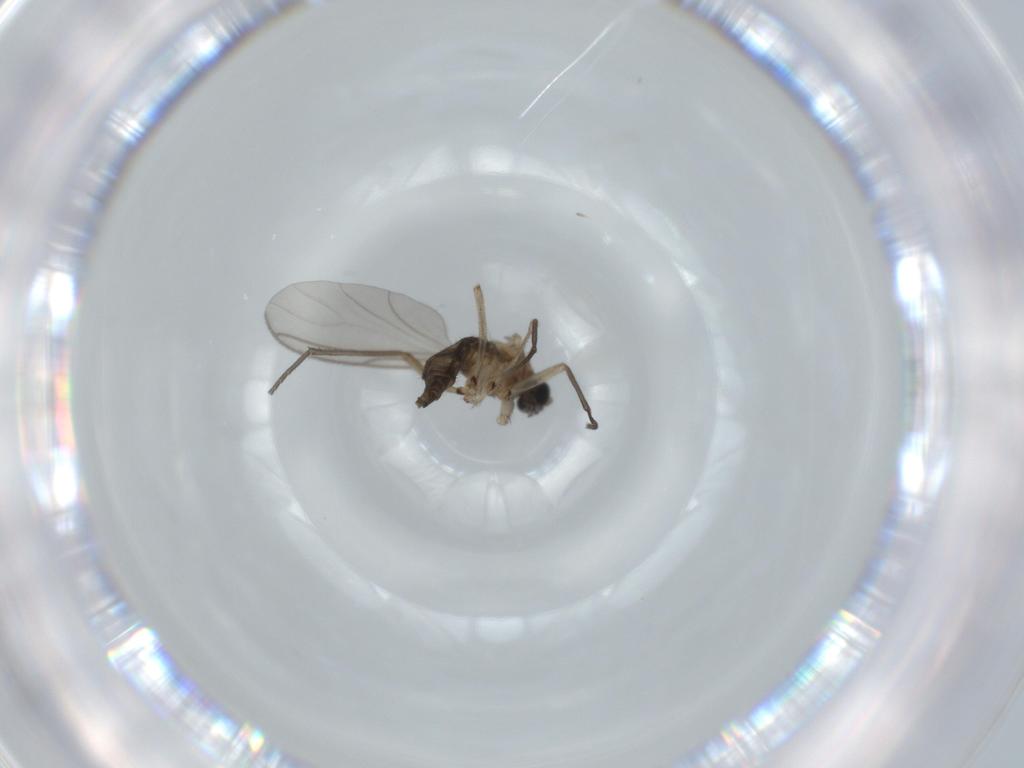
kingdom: Animalia
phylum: Arthropoda
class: Insecta
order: Diptera
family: Sciaridae
